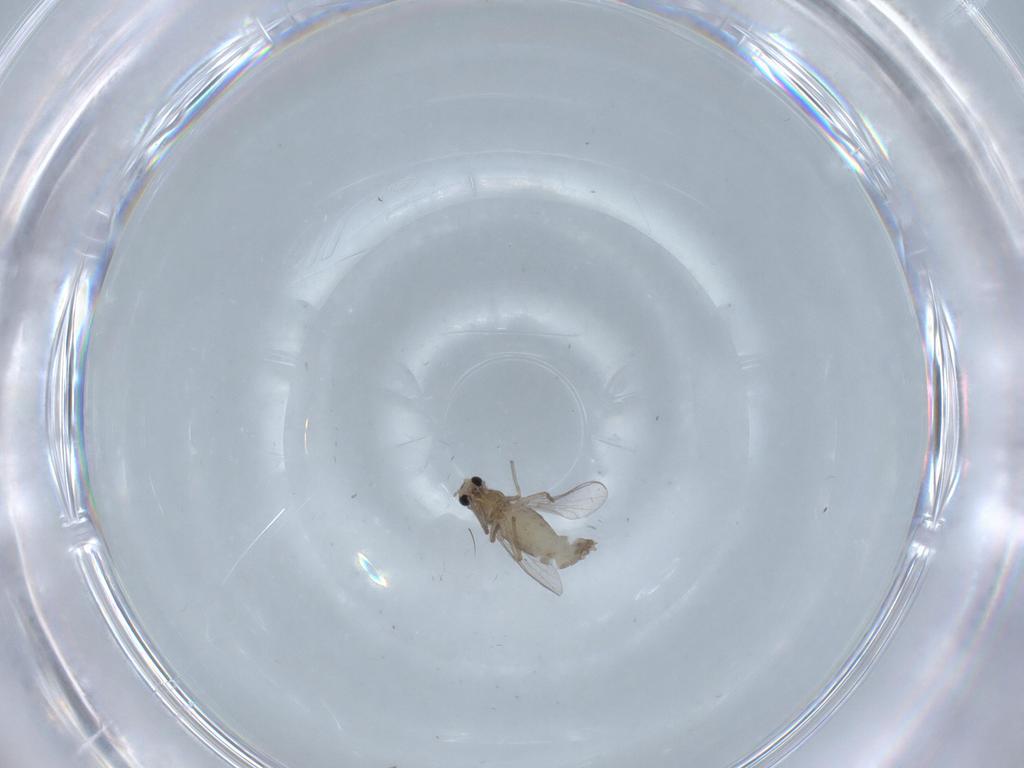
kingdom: Animalia
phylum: Arthropoda
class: Insecta
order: Diptera
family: Chironomidae
